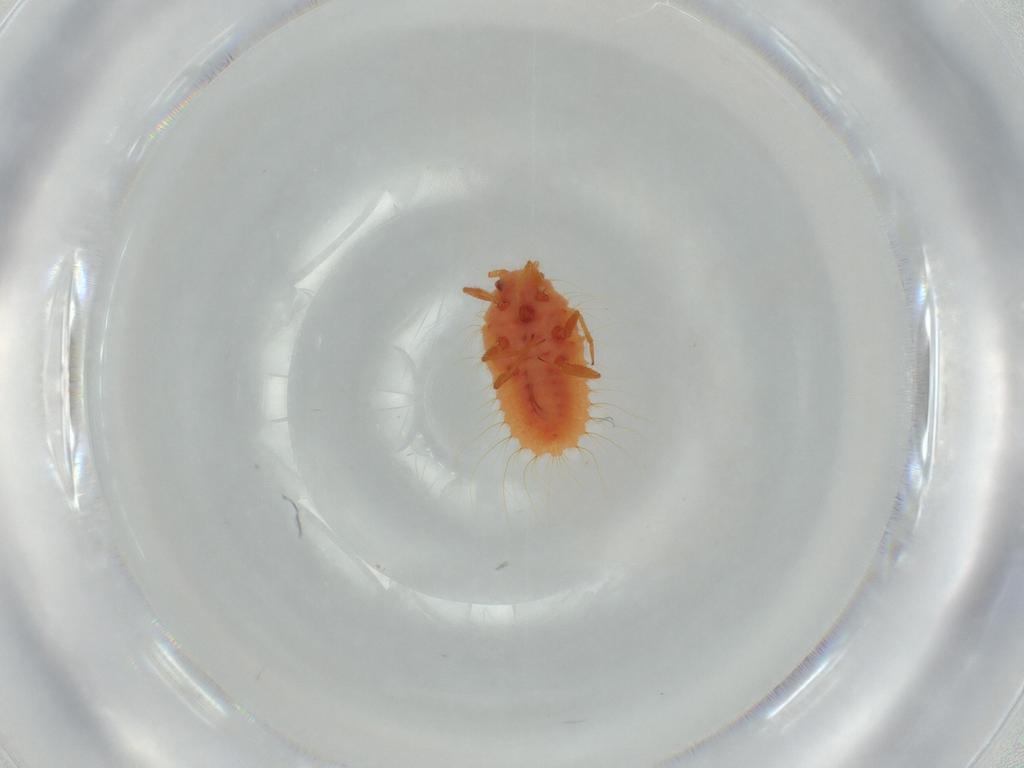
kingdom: Animalia
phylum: Arthropoda
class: Insecta
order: Hemiptera
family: Coccoidea_incertae_sedis
